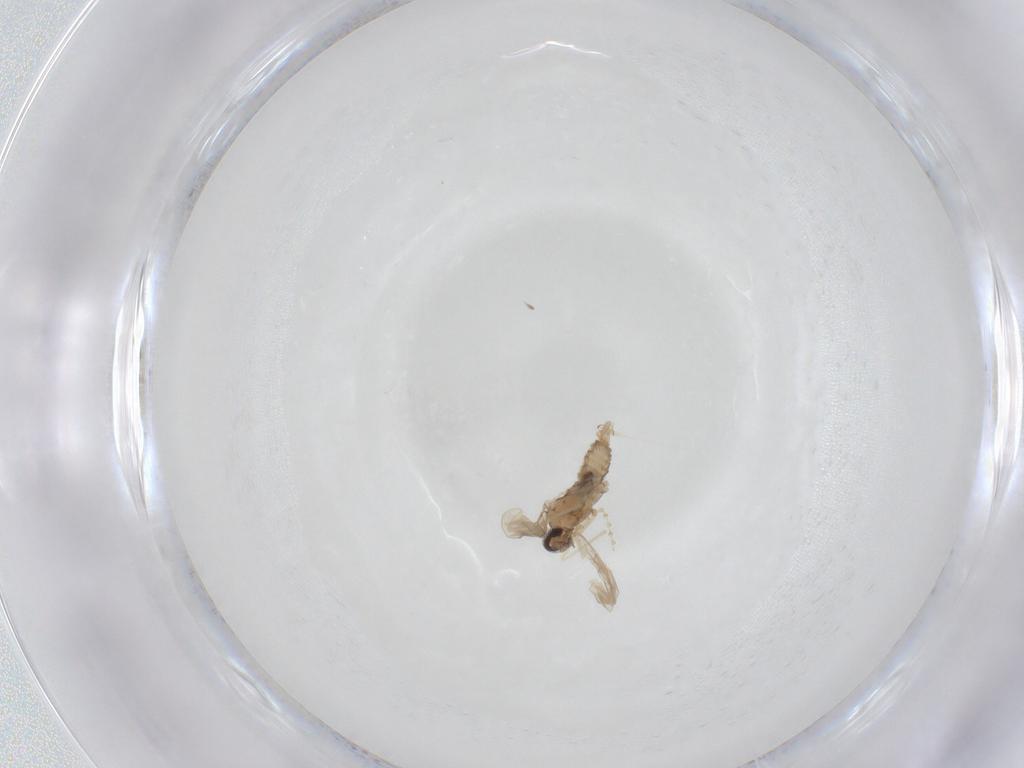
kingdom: Animalia
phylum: Arthropoda
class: Insecta
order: Diptera
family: Cecidomyiidae
